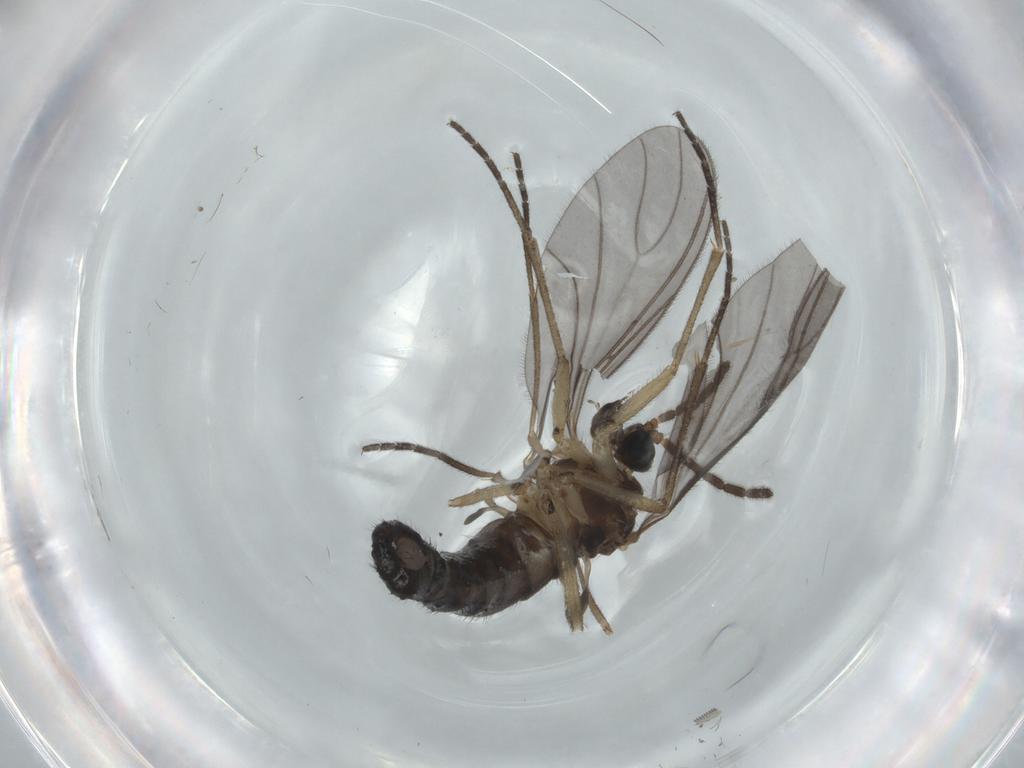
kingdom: Animalia
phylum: Arthropoda
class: Insecta
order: Diptera
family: Sciaridae
